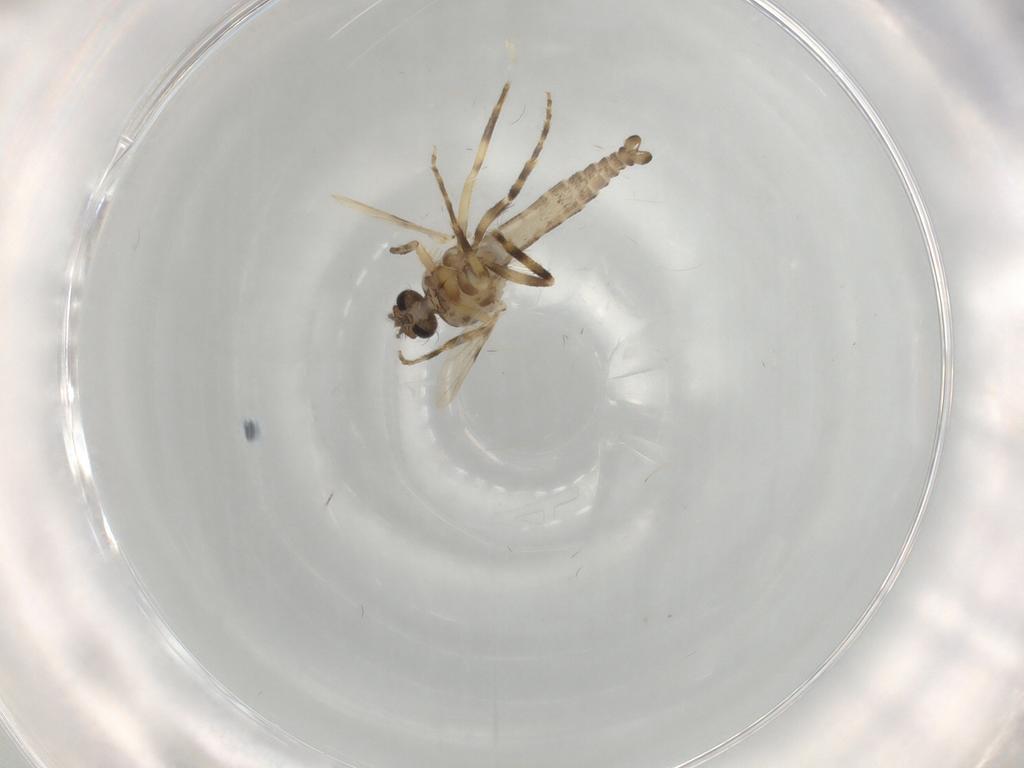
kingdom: Animalia
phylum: Arthropoda
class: Insecta
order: Diptera
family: Ceratopogonidae
